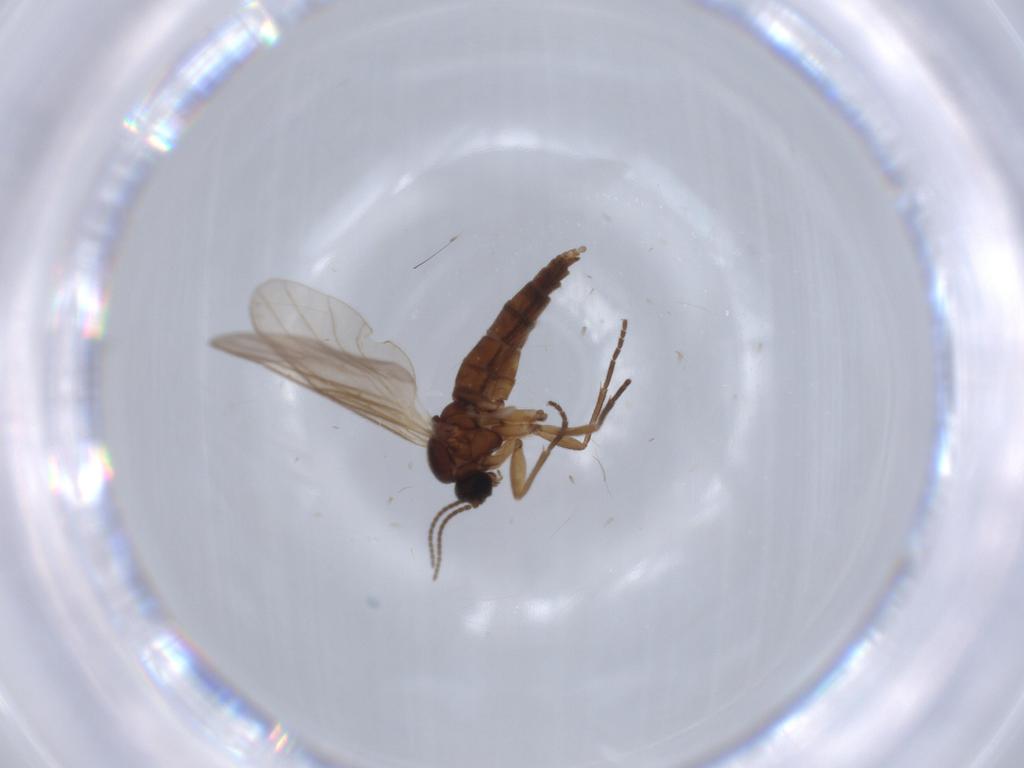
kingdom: Animalia
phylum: Arthropoda
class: Insecta
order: Diptera
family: Sciaridae
